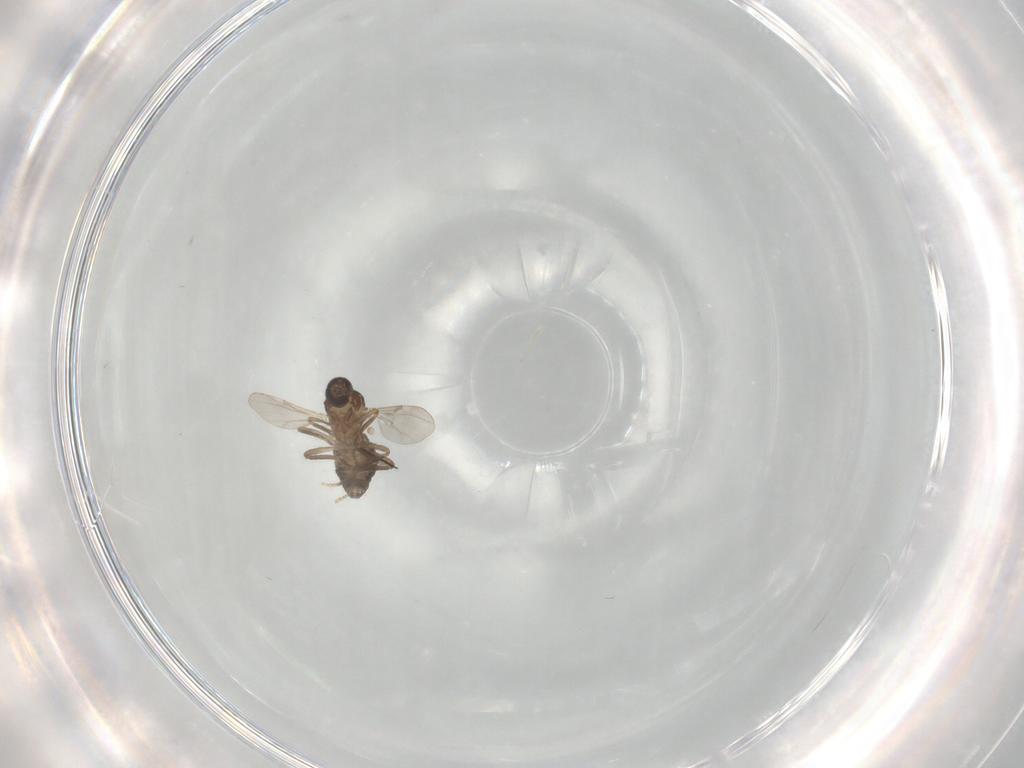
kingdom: Animalia
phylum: Arthropoda
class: Insecta
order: Diptera
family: Ceratopogonidae
